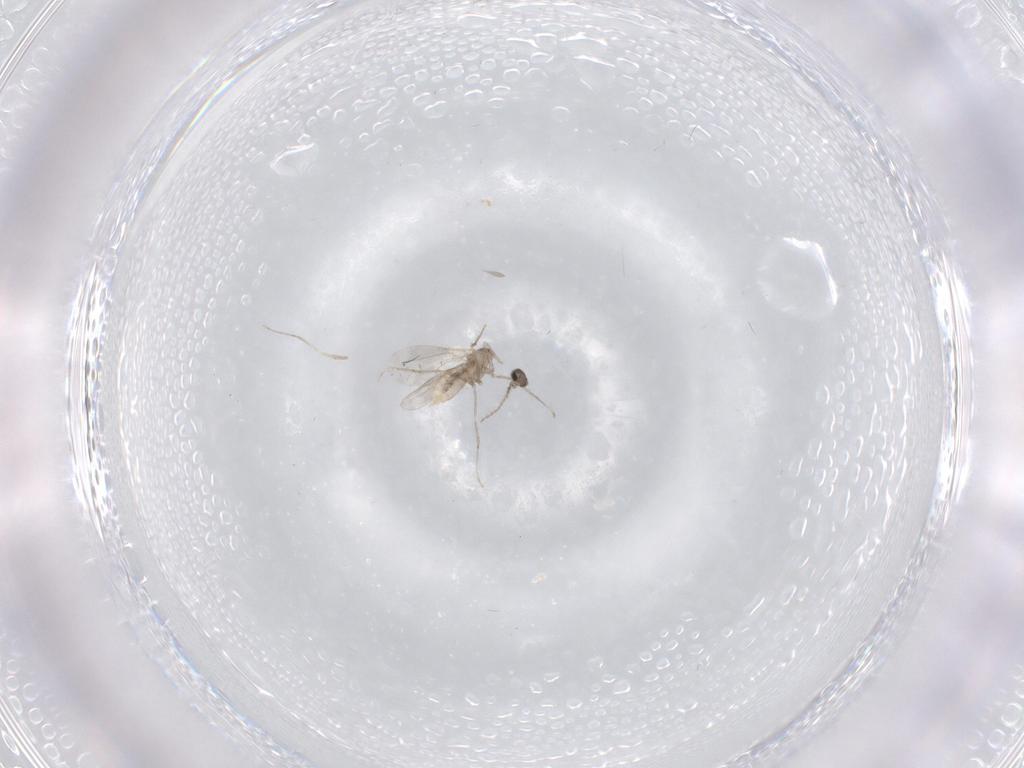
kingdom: Animalia
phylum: Arthropoda
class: Insecta
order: Diptera
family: Cecidomyiidae
